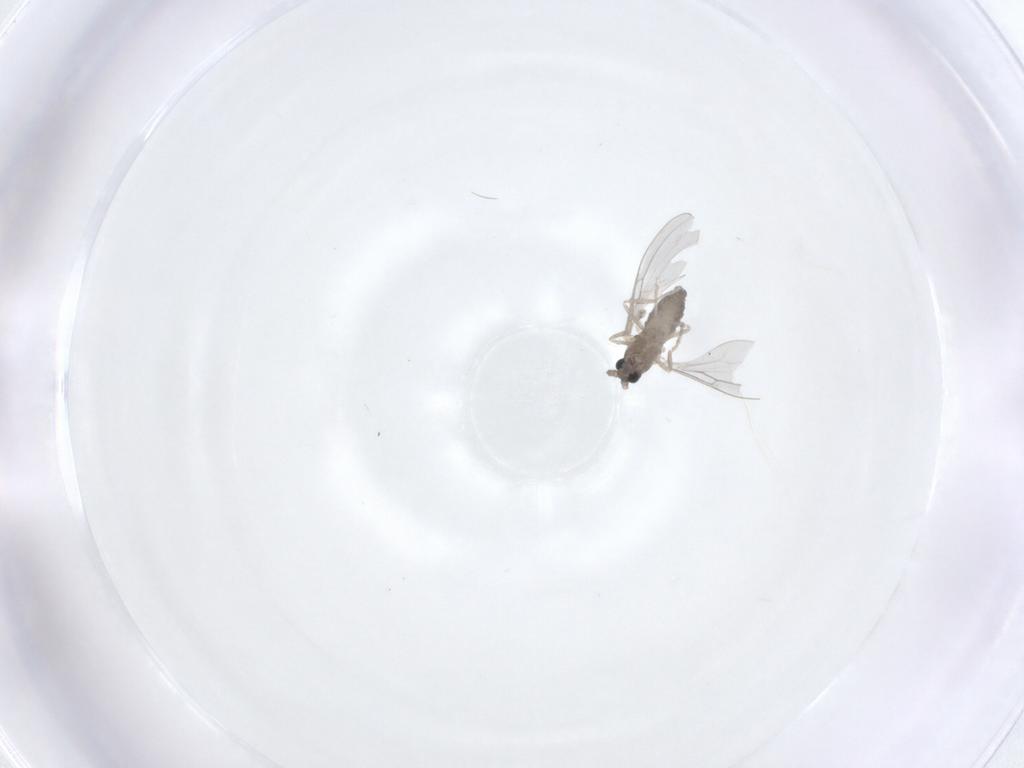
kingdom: Animalia
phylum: Arthropoda
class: Insecta
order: Diptera
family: Cecidomyiidae
